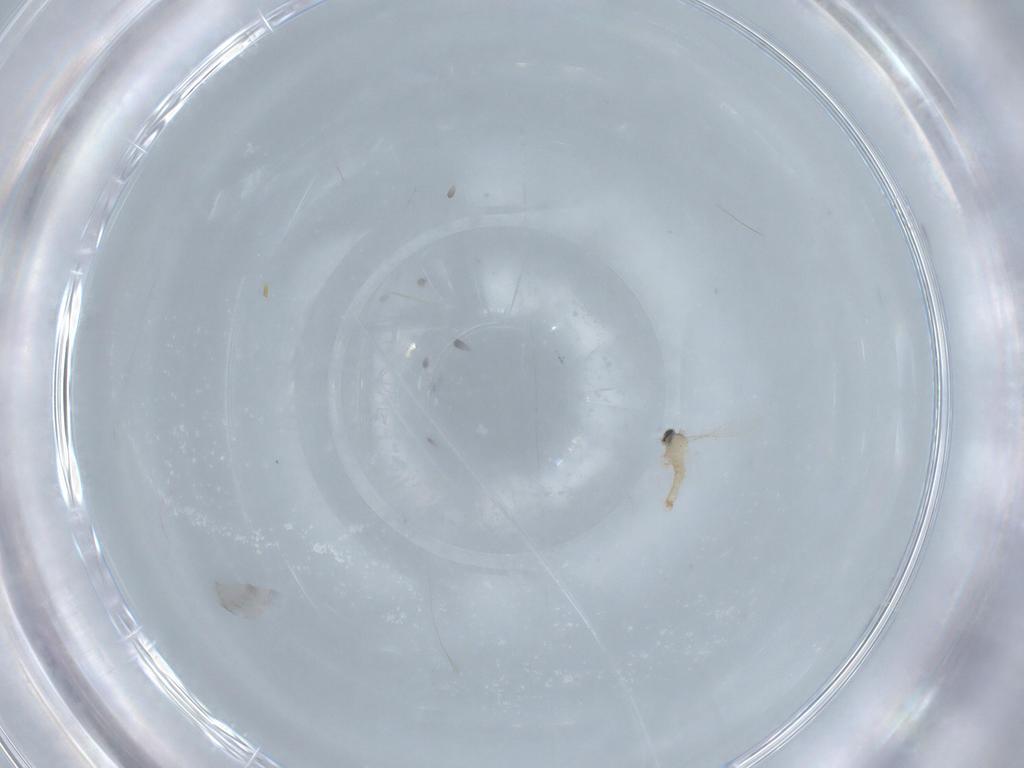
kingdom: Animalia
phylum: Arthropoda
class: Insecta
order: Diptera
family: Cecidomyiidae
